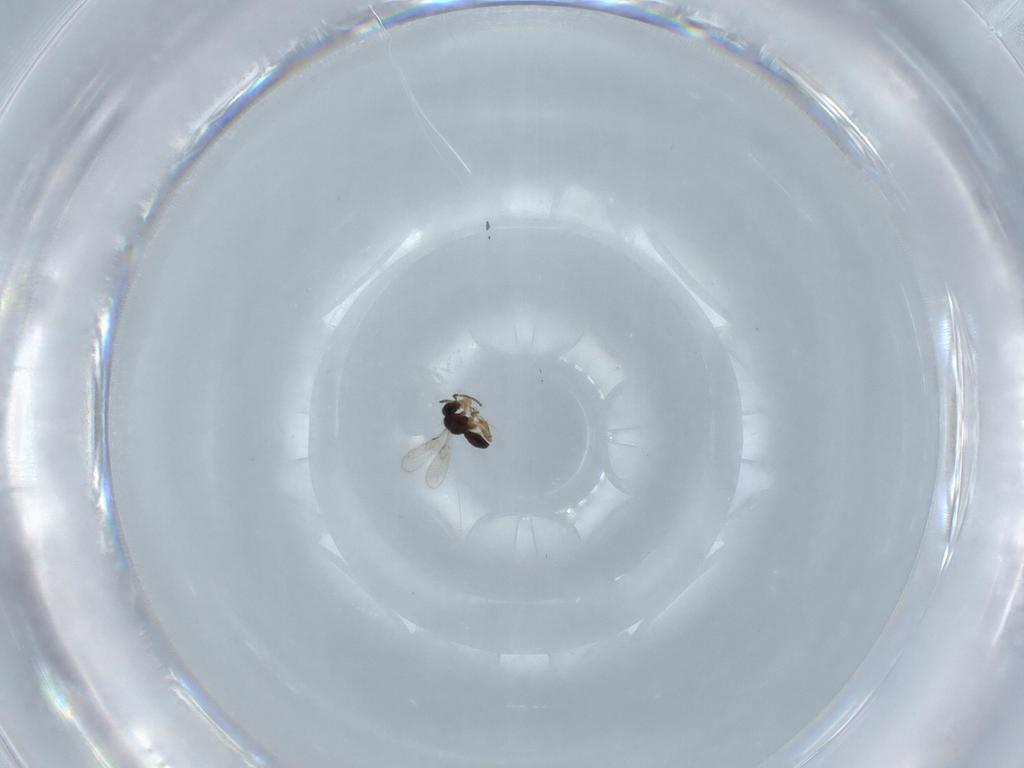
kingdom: Animalia
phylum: Arthropoda
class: Insecta
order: Hymenoptera
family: Scelionidae
